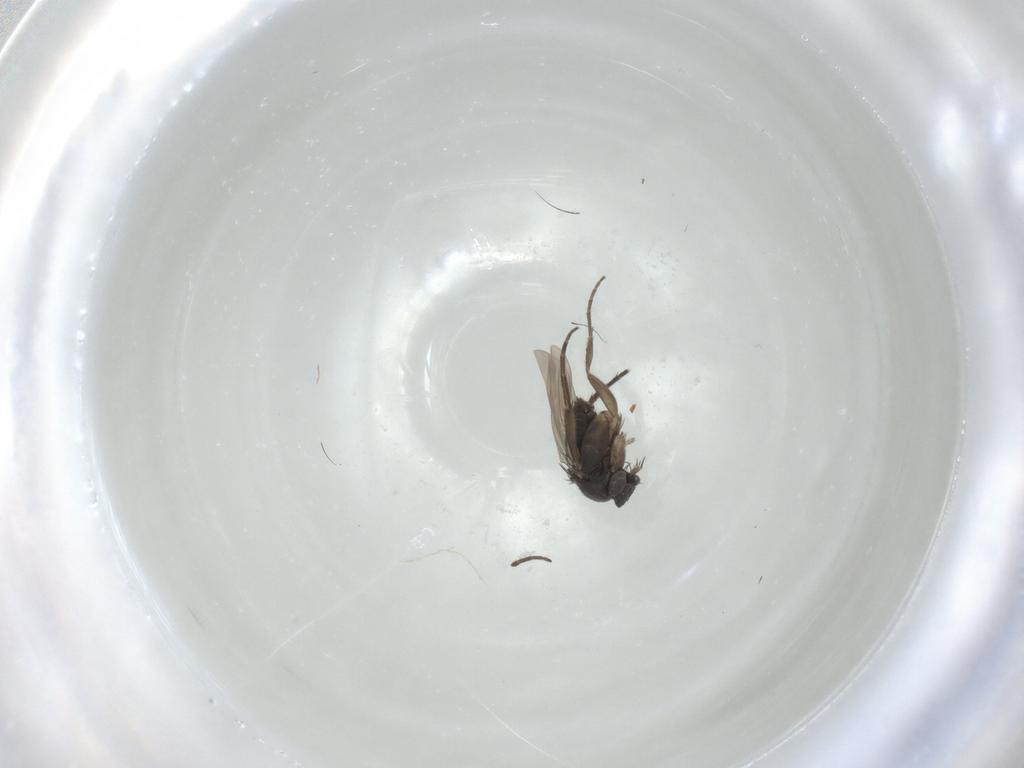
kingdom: Animalia
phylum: Arthropoda
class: Insecta
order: Diptera
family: Phoridae
